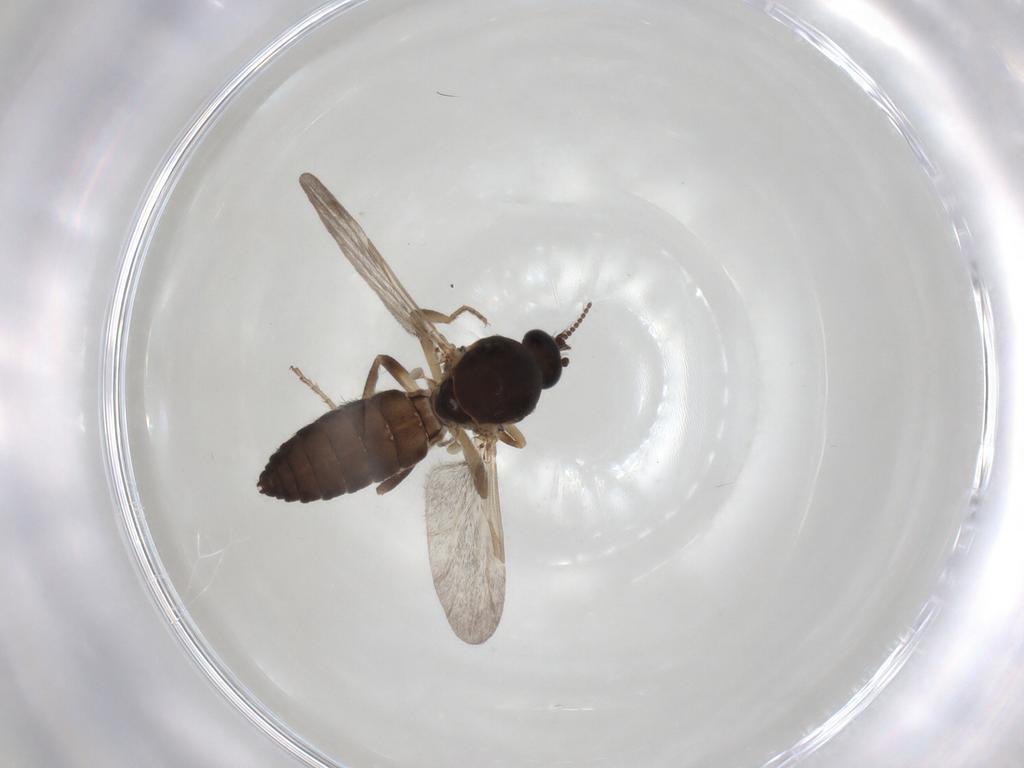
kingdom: Animalia
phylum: Arthropoda
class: Insecta
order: Diptera
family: Ceratopogonidae
